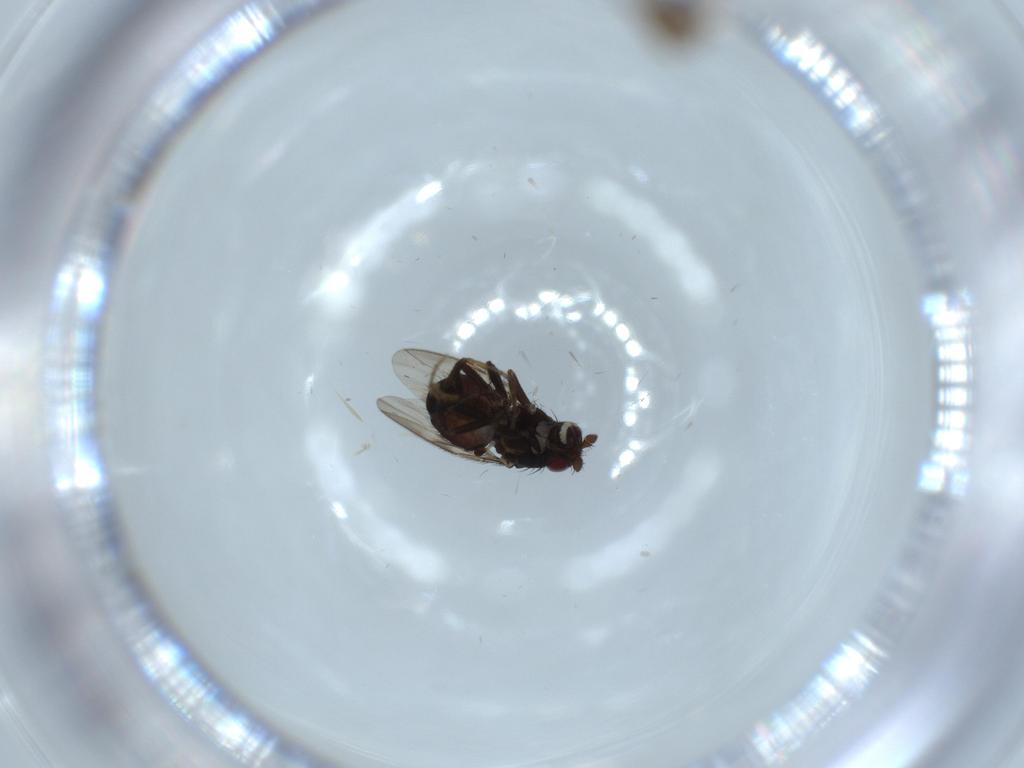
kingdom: Animalia
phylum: Arthropoda
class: Insecta
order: Diptera
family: Cecidomyiidae
